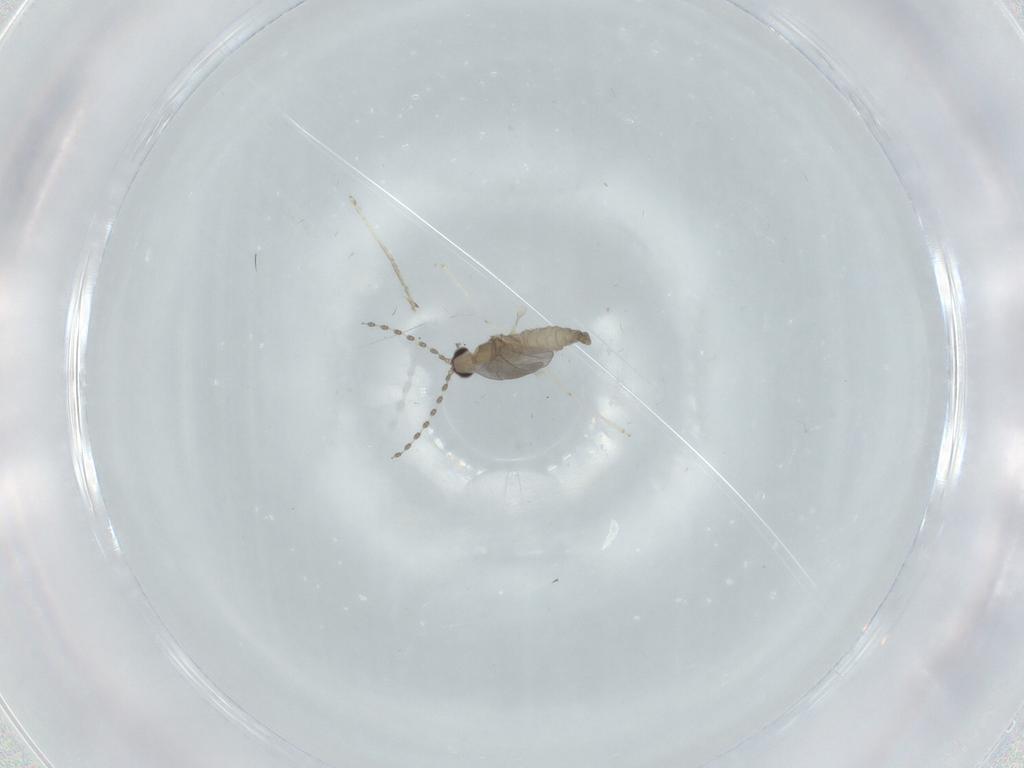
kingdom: Animalia
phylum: Arthropoda
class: Insecta
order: Diptera
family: Cecidomyiidae
